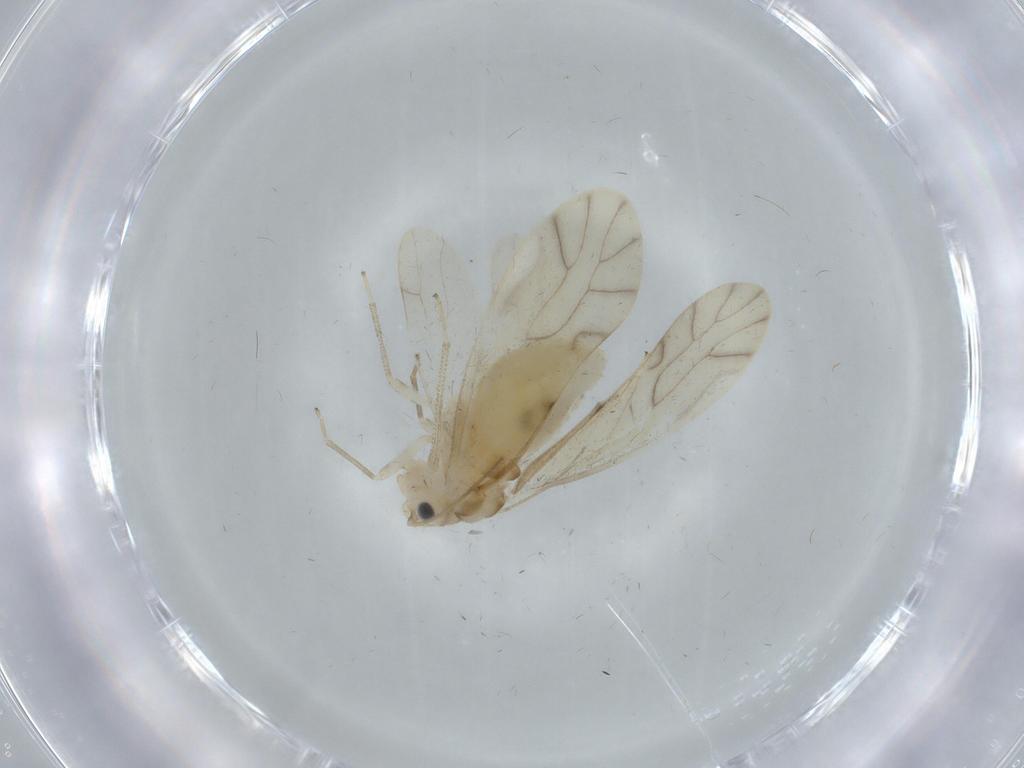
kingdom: Animalia
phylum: Arthropoda
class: Insecta
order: Psocodea
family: Caeciliusidae
